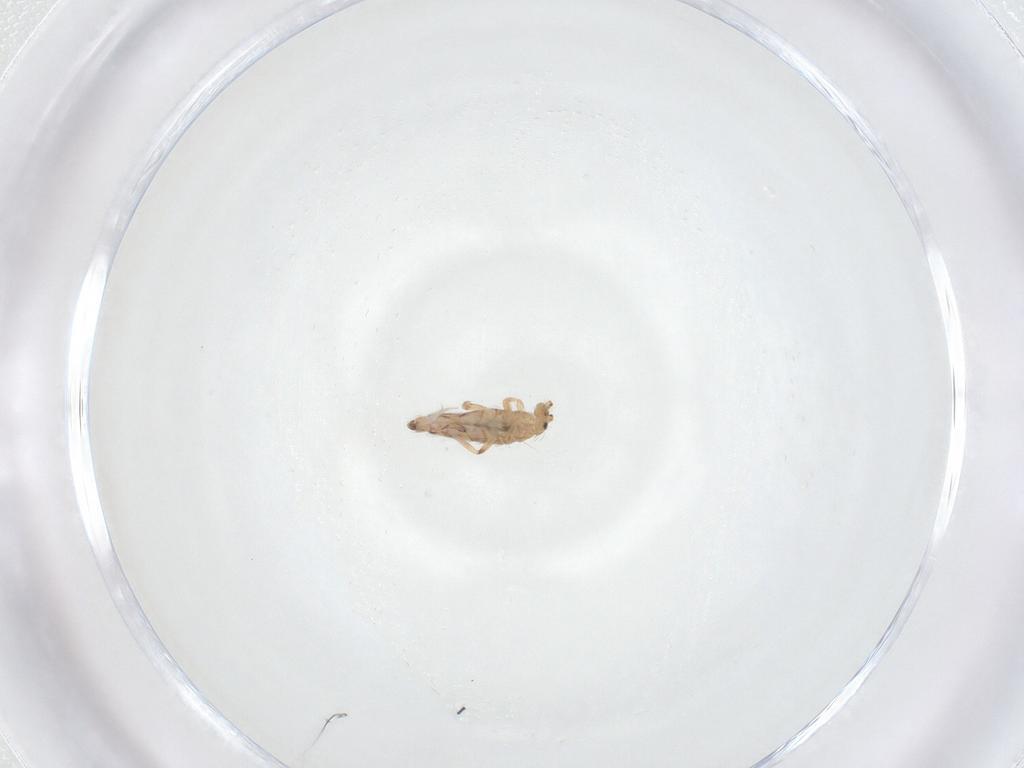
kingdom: Animalia
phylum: Arthropoda
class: Collembola
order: Entomobryomorpha
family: Entomobryidae
